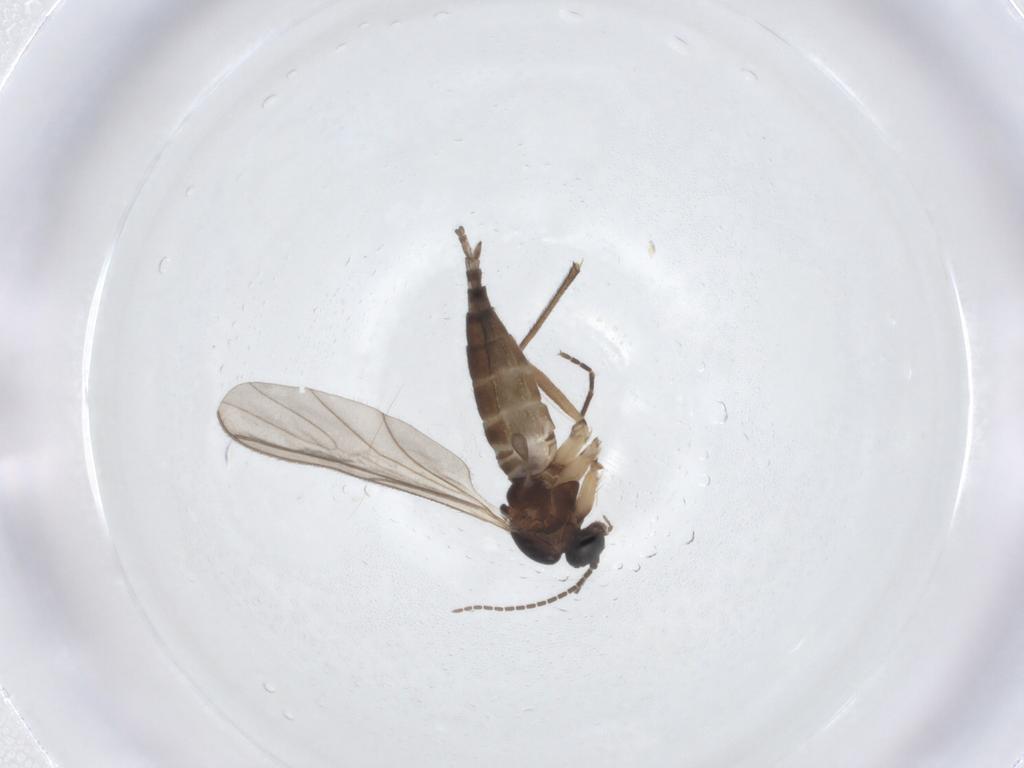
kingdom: Animalia
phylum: Arthropoda
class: Insecta
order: Diptera
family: Sciaridae
